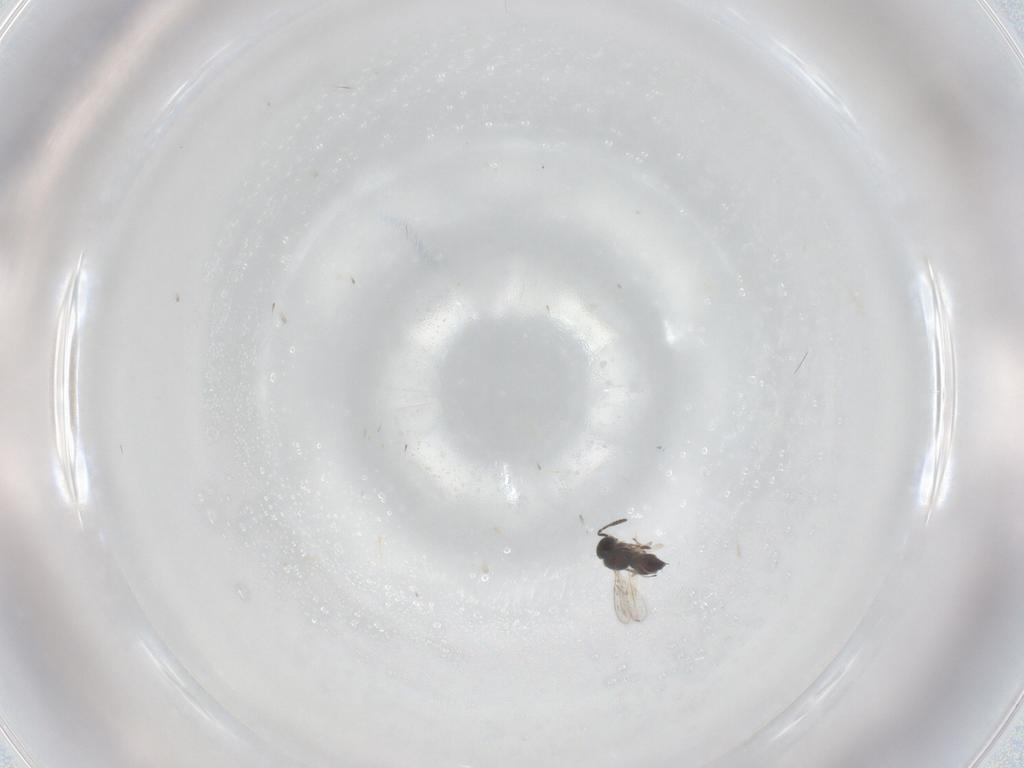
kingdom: Animalia
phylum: Arthropoda
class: Insecta
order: Hymenoptera
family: Scelionidae
